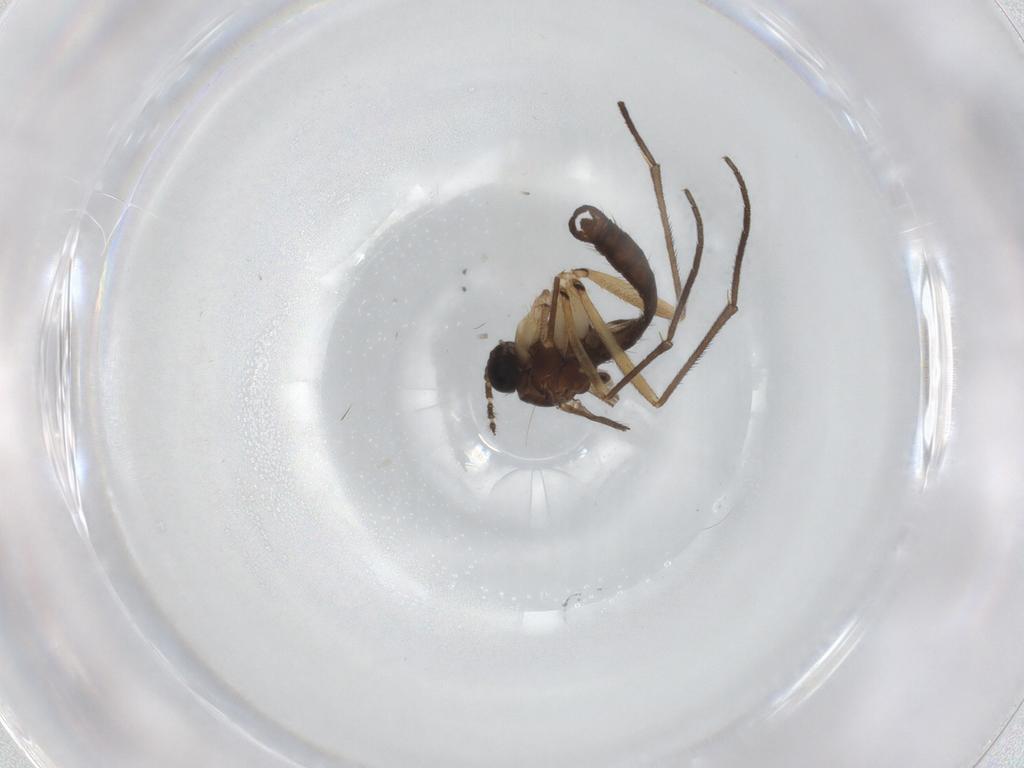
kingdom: Animalia
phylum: Arthropoda
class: Insecta
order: Diptera
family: Sciaridae
